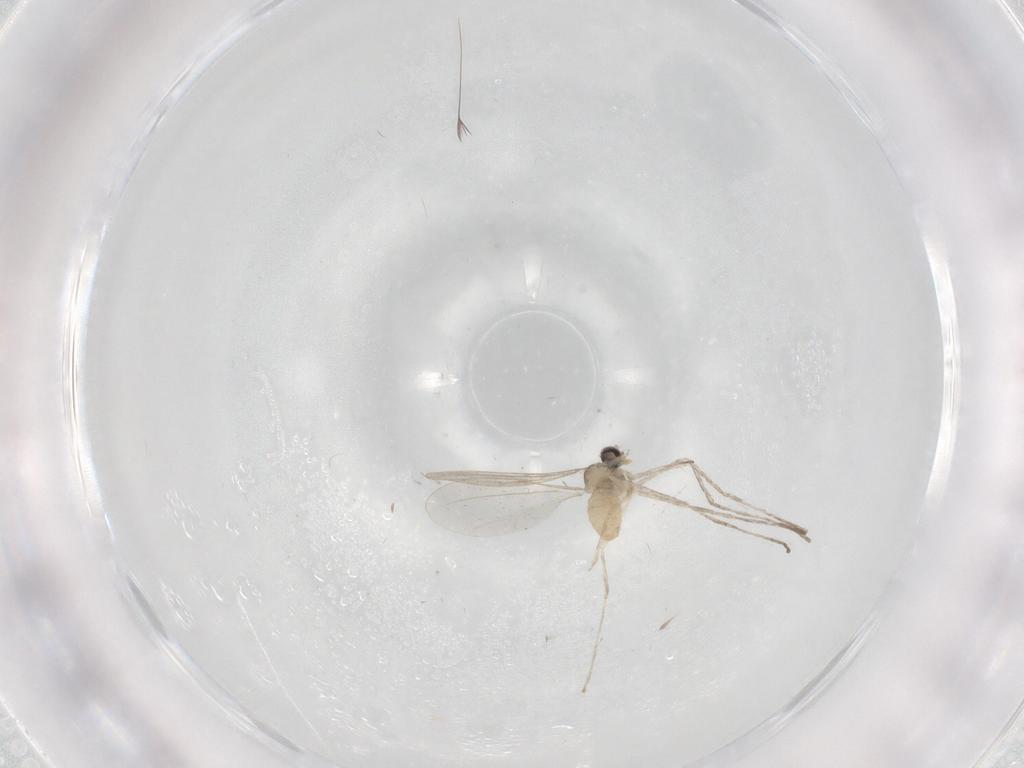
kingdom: Animalia
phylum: Arthropoda
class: Insecta
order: Diptera
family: Cecidomyiidae
